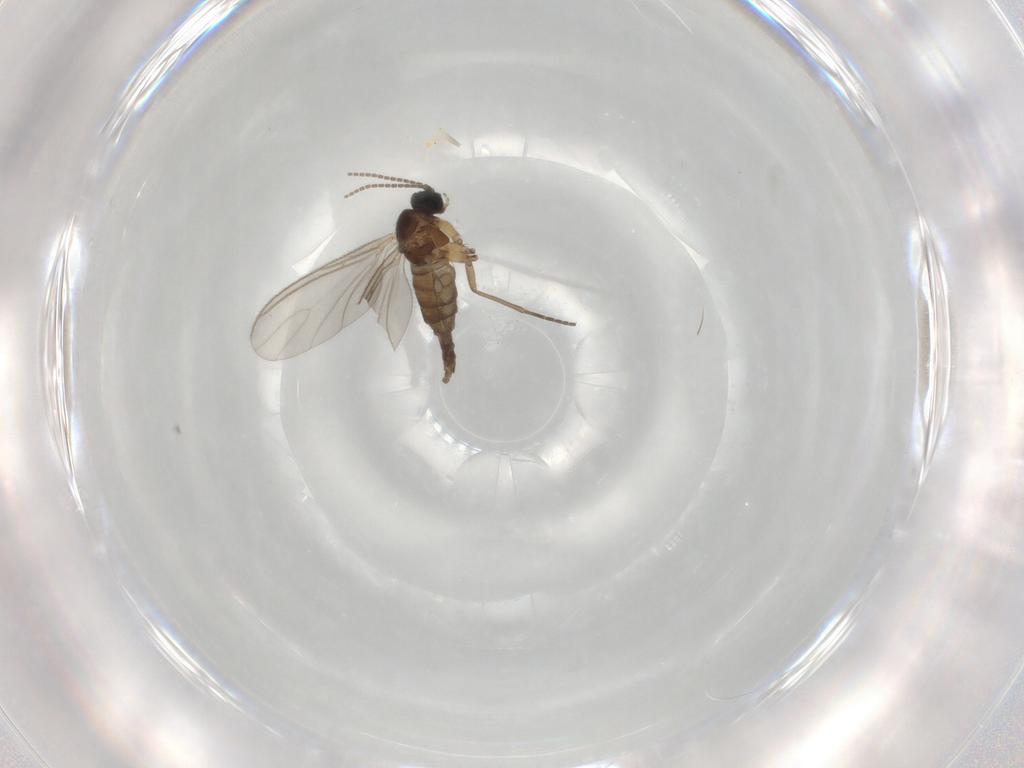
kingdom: Animalia
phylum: Arthropoda
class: Insecta
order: Diptera
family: Sciaridae
